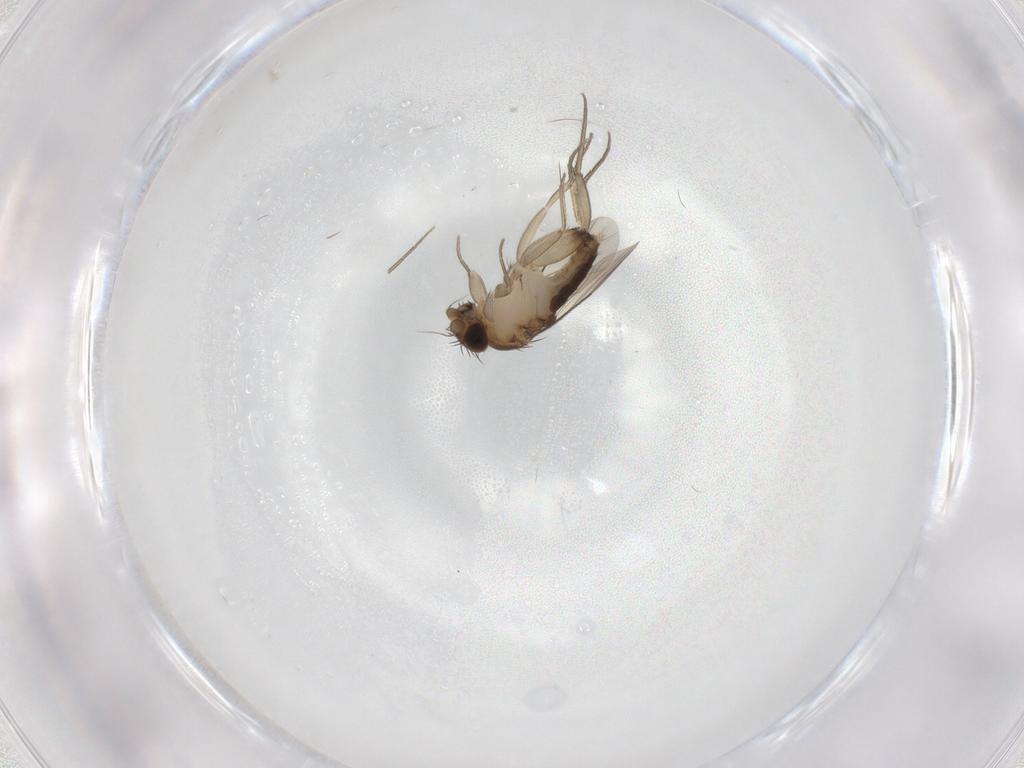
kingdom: Animalia
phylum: Arthropoda
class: Insecta
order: Diptera
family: Phoridae
